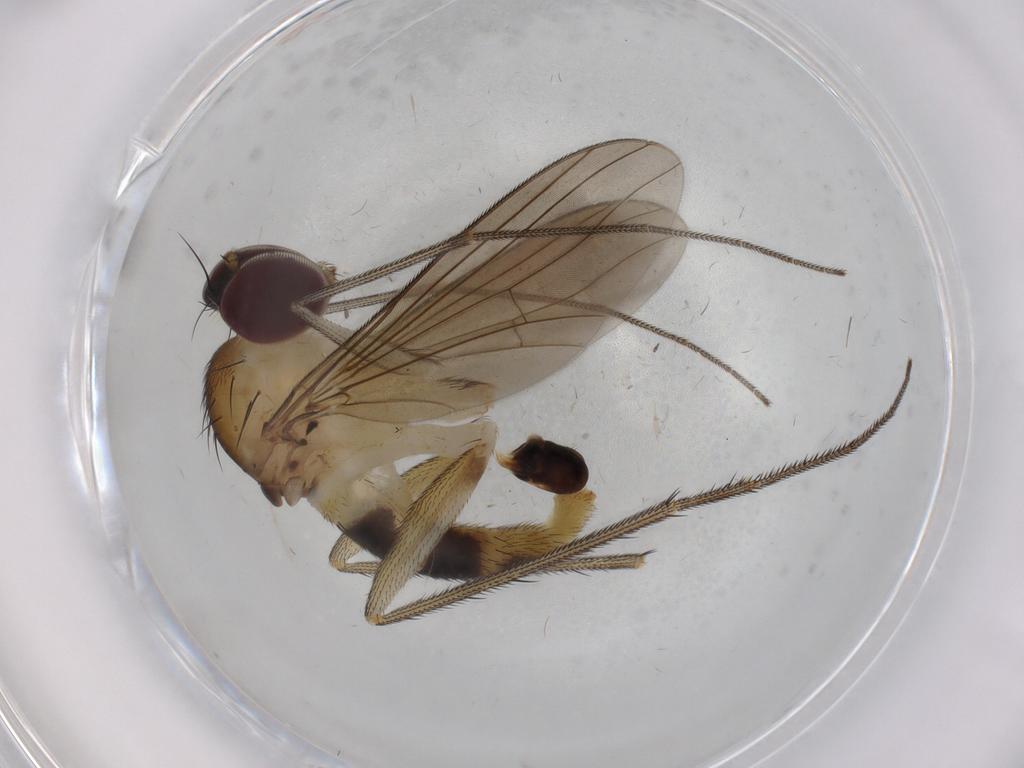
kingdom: Animalia
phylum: Arthropoda
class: Insecta
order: Diptera
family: Dolichopodidae
